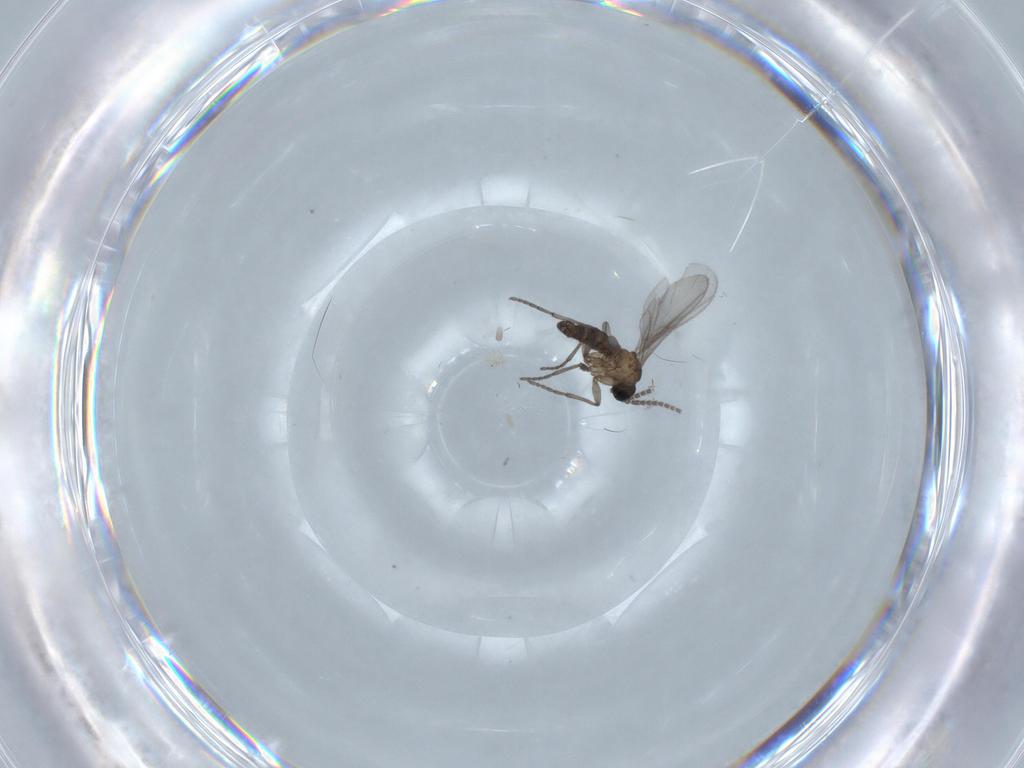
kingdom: Animalia
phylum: Arthropoda
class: Insecta
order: Diptera
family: Sciaridae
